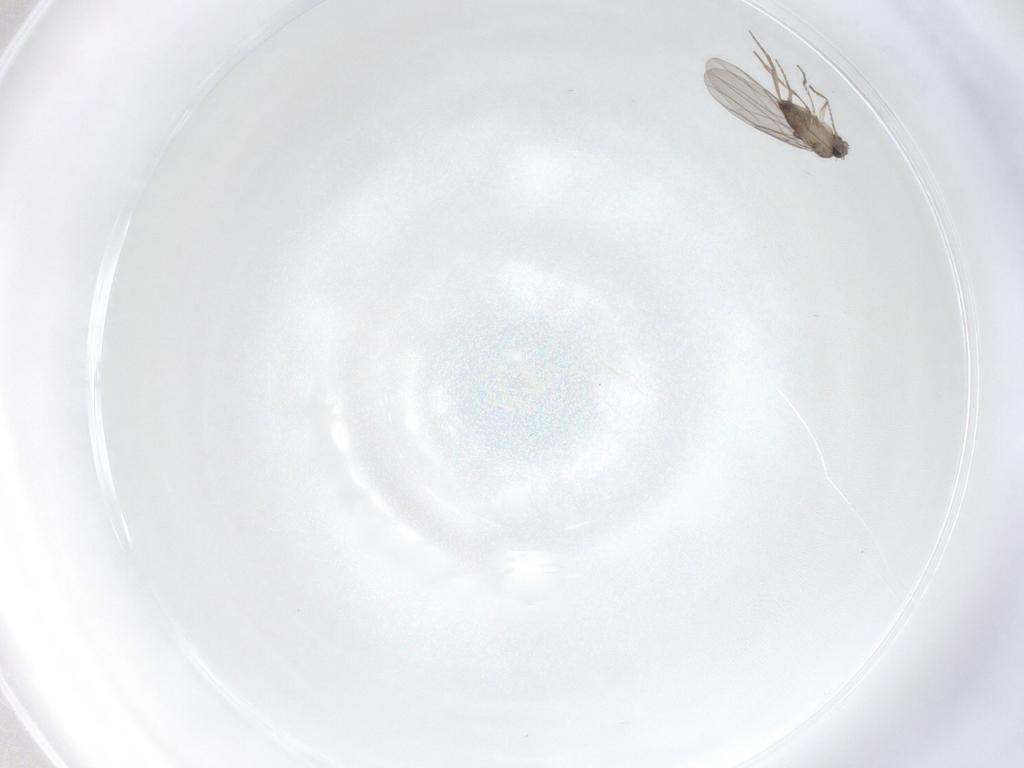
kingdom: Animalia
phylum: Arthropoda
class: Insecta
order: Diptera
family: Phoridae
